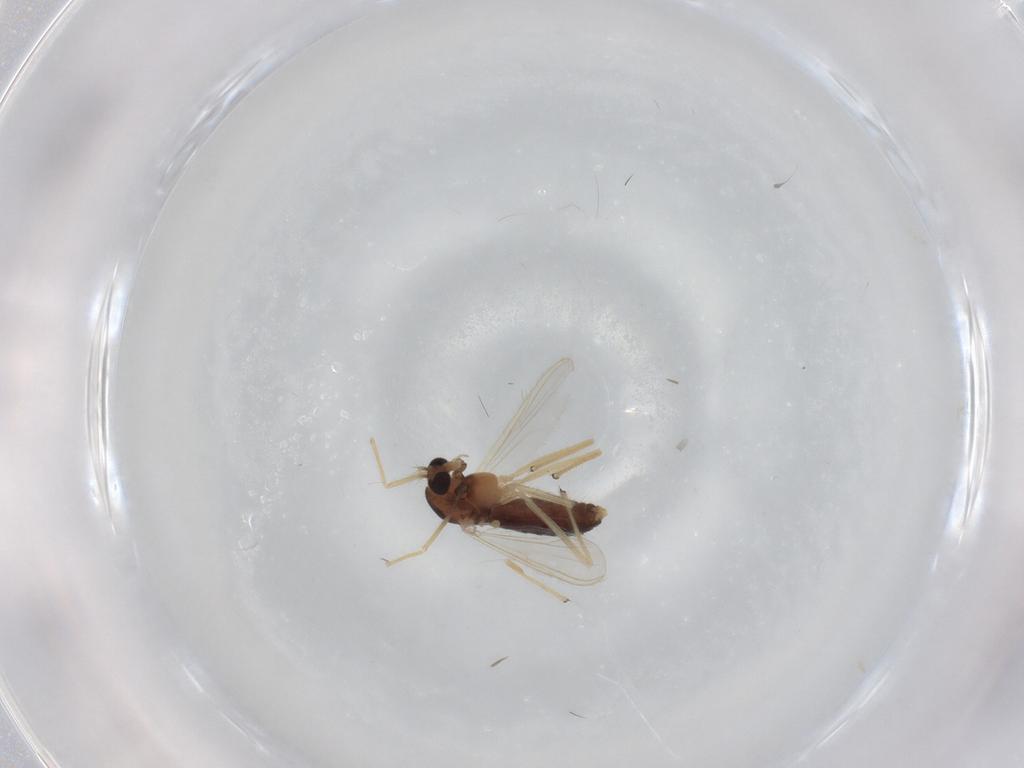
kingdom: Animalia
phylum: Arthropoda
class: Insecta
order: Diptera
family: Chironomidae
